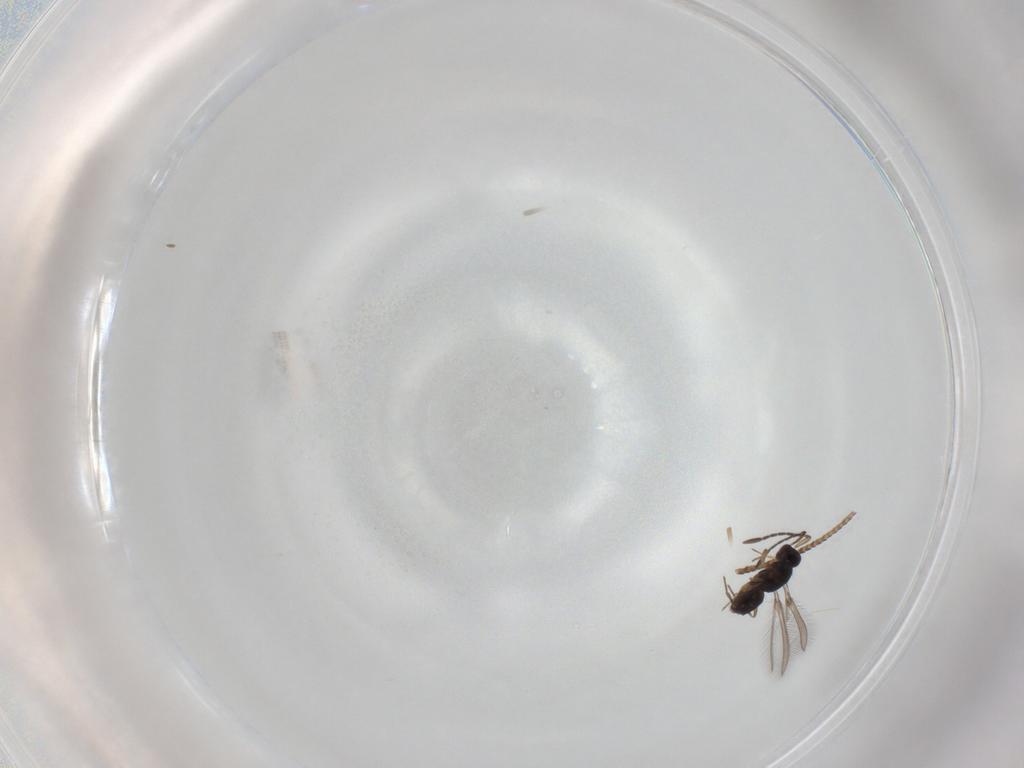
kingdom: Animalia
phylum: Arthropoda
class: Insecta
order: Hymenoptera
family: Mymaridae
